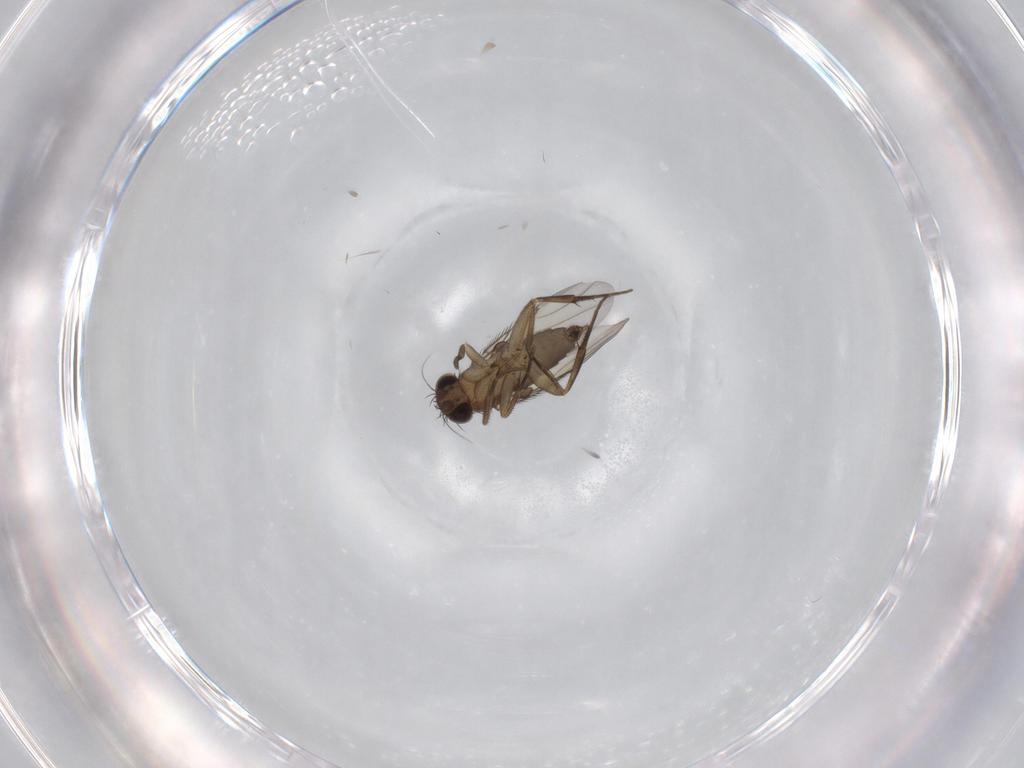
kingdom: Animalia
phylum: Arthropoda
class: Insecta
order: Diptera
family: Phoridae
